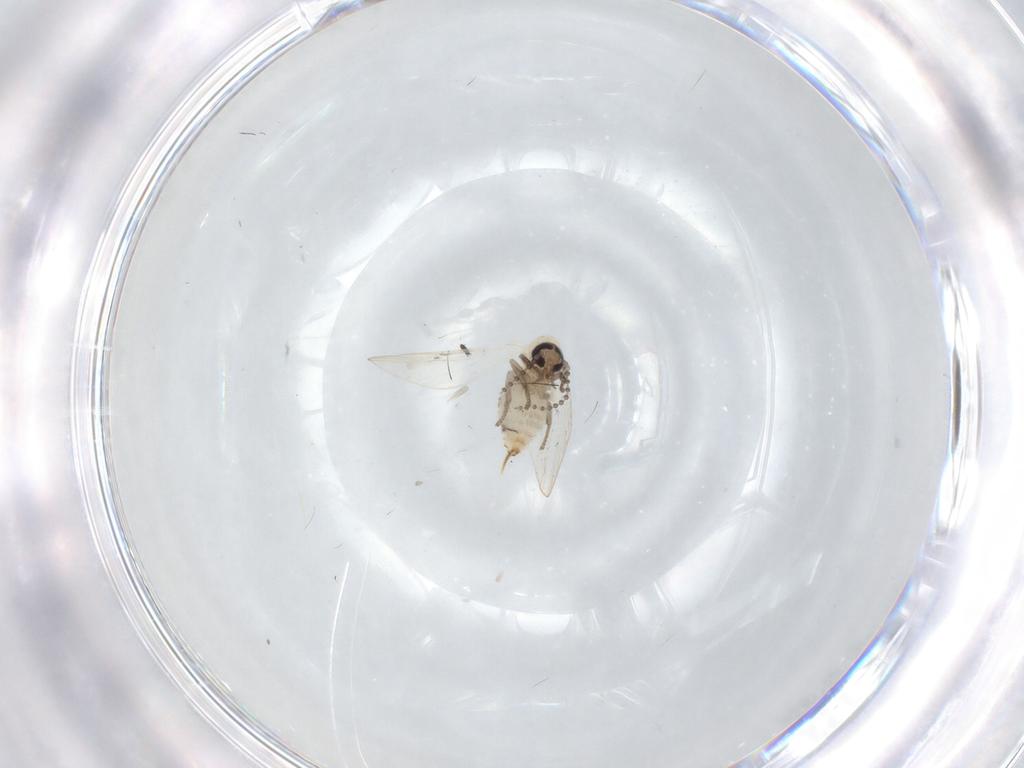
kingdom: Animalia
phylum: Arthropoda
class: Insecta
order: Diptera
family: Psychodidae
